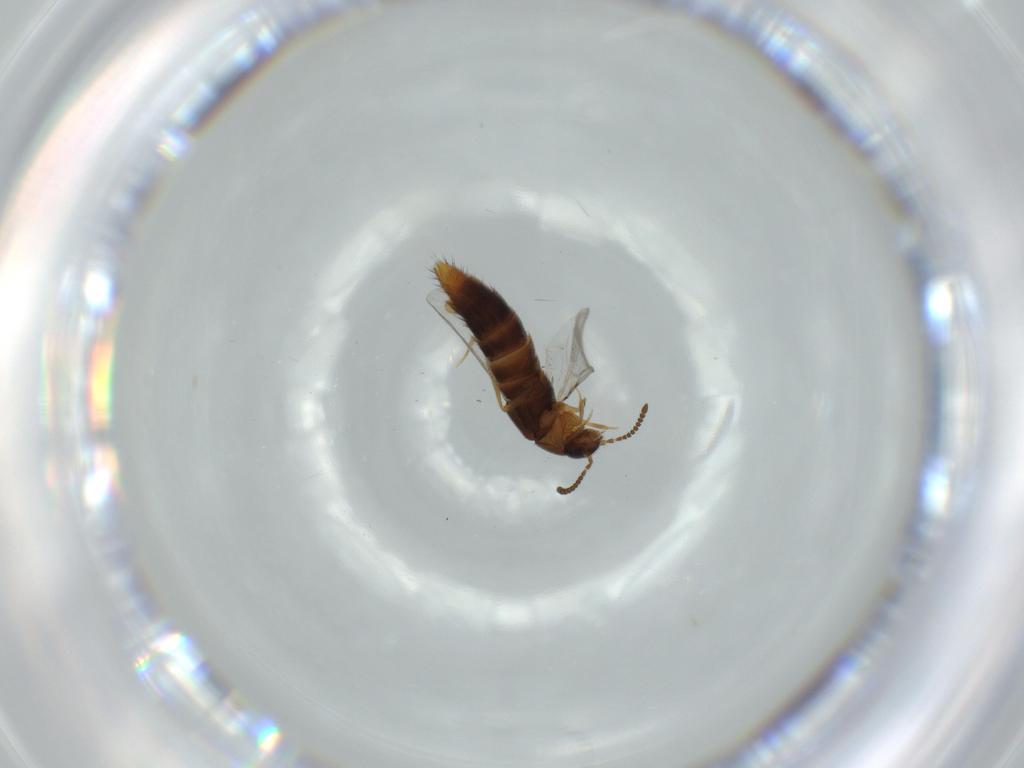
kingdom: Animalia
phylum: Arthropoda
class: Insecta
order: Coleoptera
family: Staphylinidae
